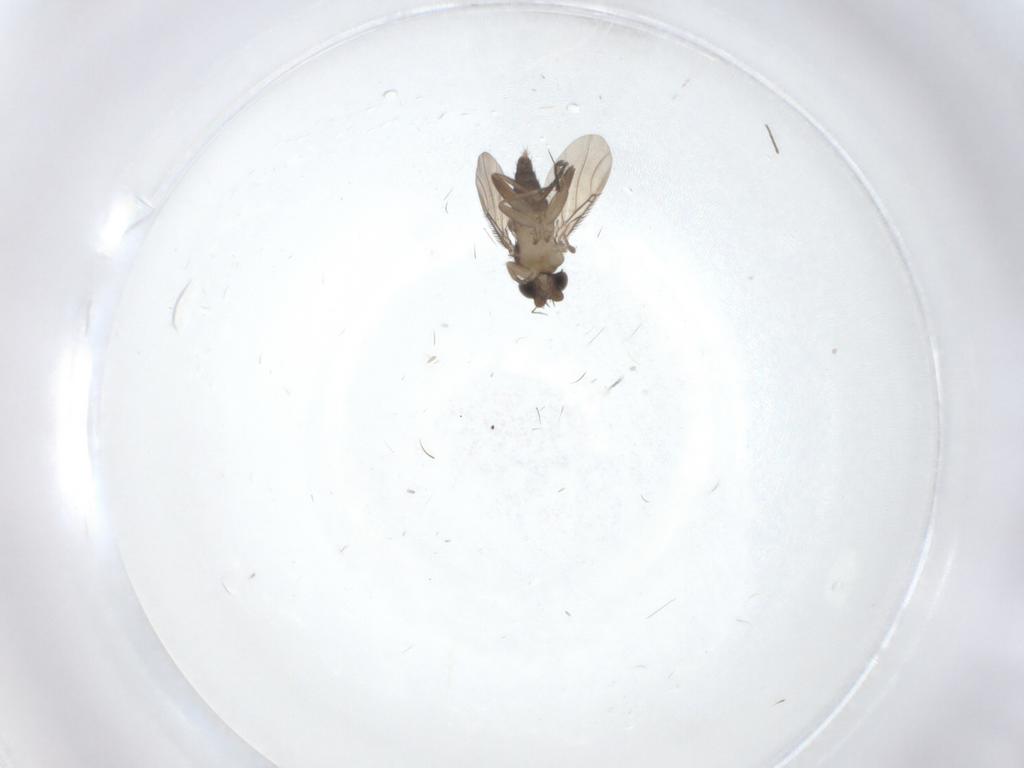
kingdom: Animalia
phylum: Arthropoda
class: Insecta
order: Diptera
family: Phoridae
